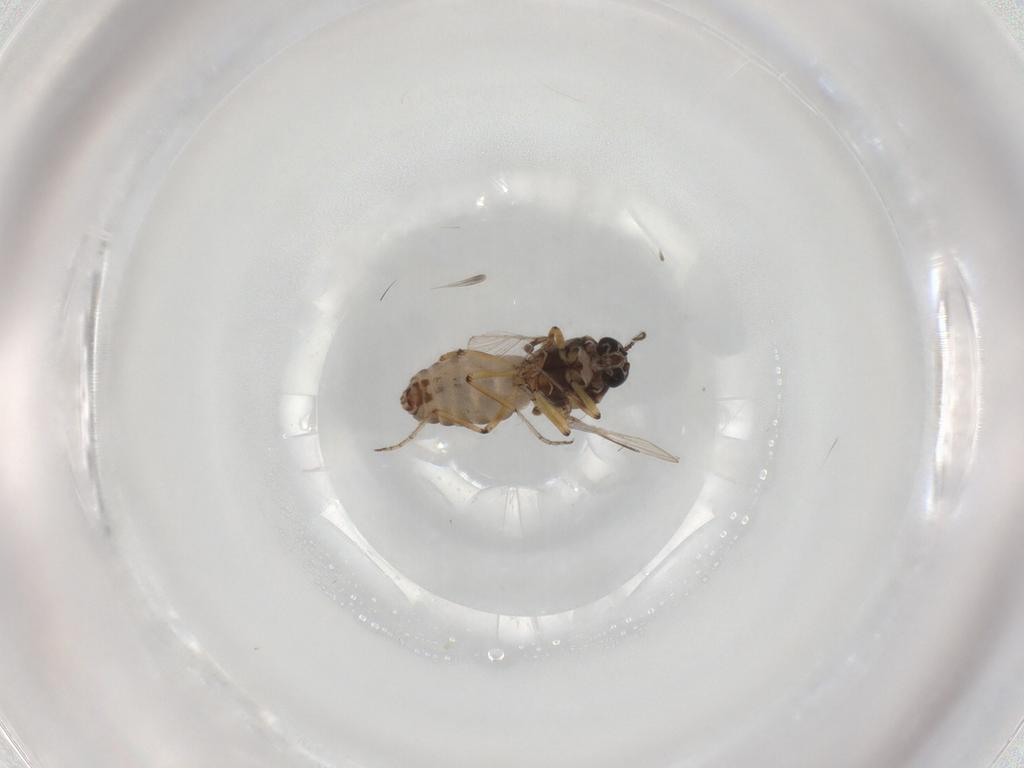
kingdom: Animalia
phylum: Arthropoda
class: Insecta
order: Diptera
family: Ceratopogonidae
